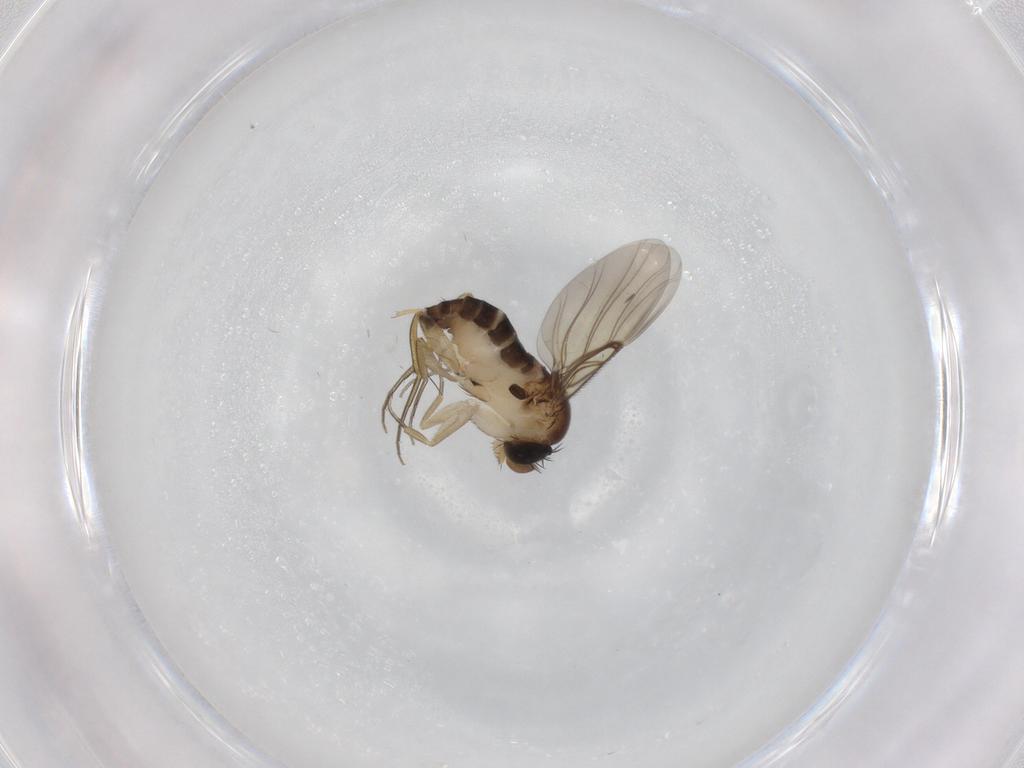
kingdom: Animalia
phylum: Arthropoda
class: Insecta
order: Diptera
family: Phoridae
